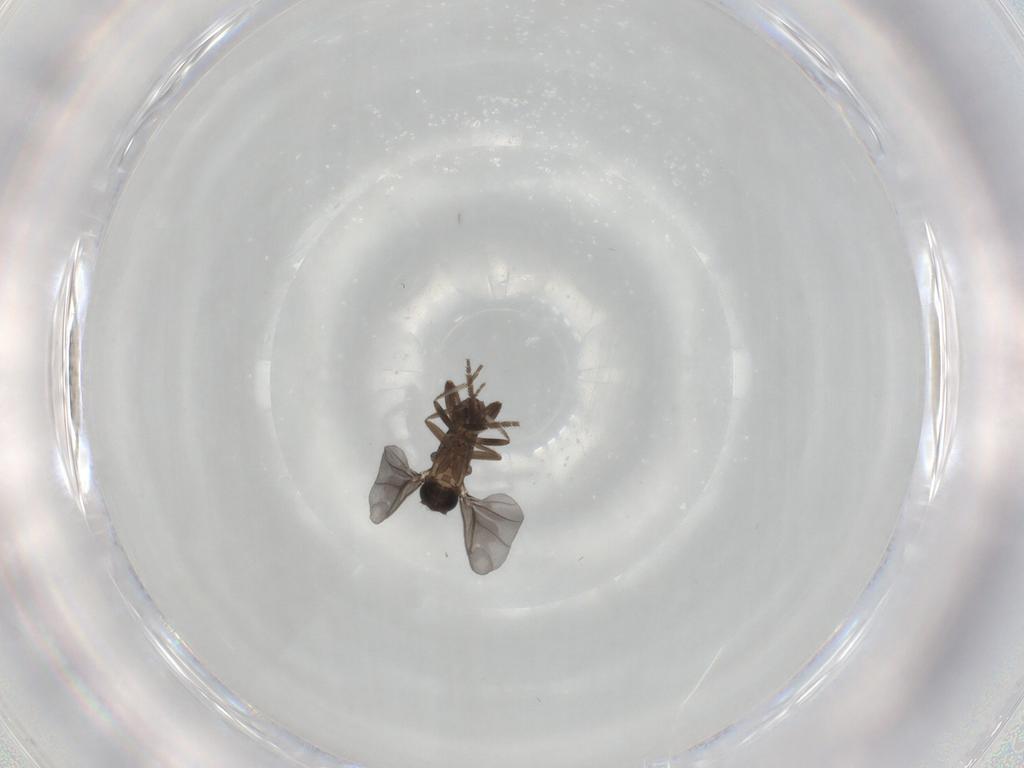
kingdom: Animalia
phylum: Arthropoda
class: Insecta
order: Diptera
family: Phoridae
